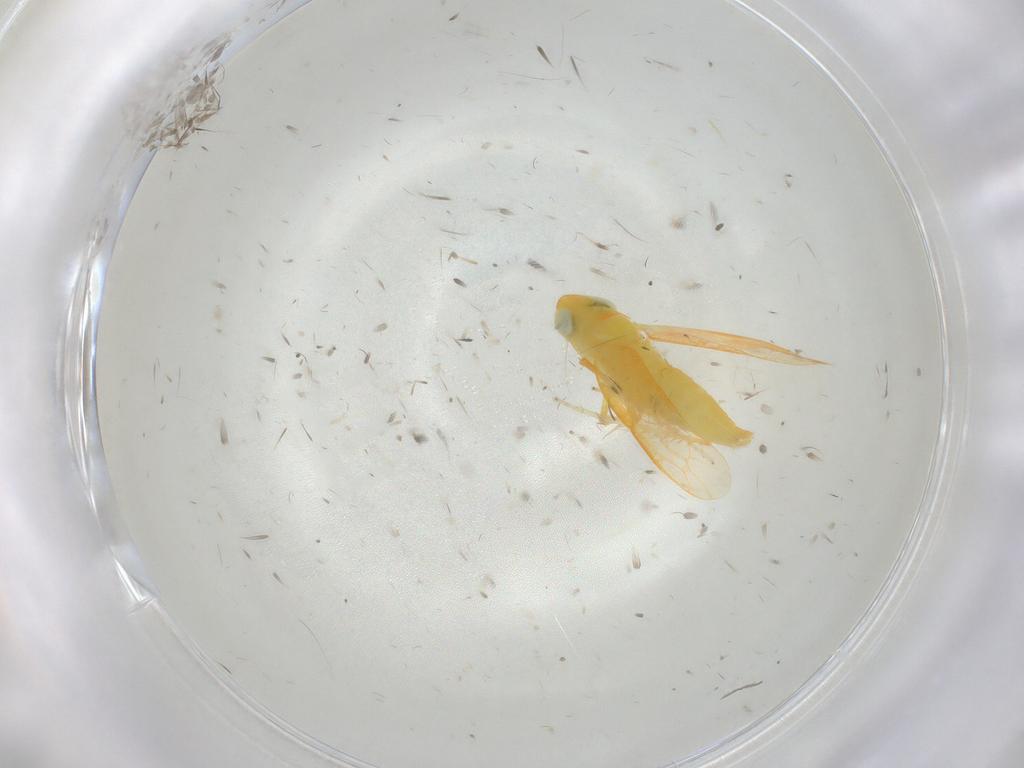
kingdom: Animalia
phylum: Arthropoda
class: Insecta
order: Hemiptera
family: Cicadellidae
